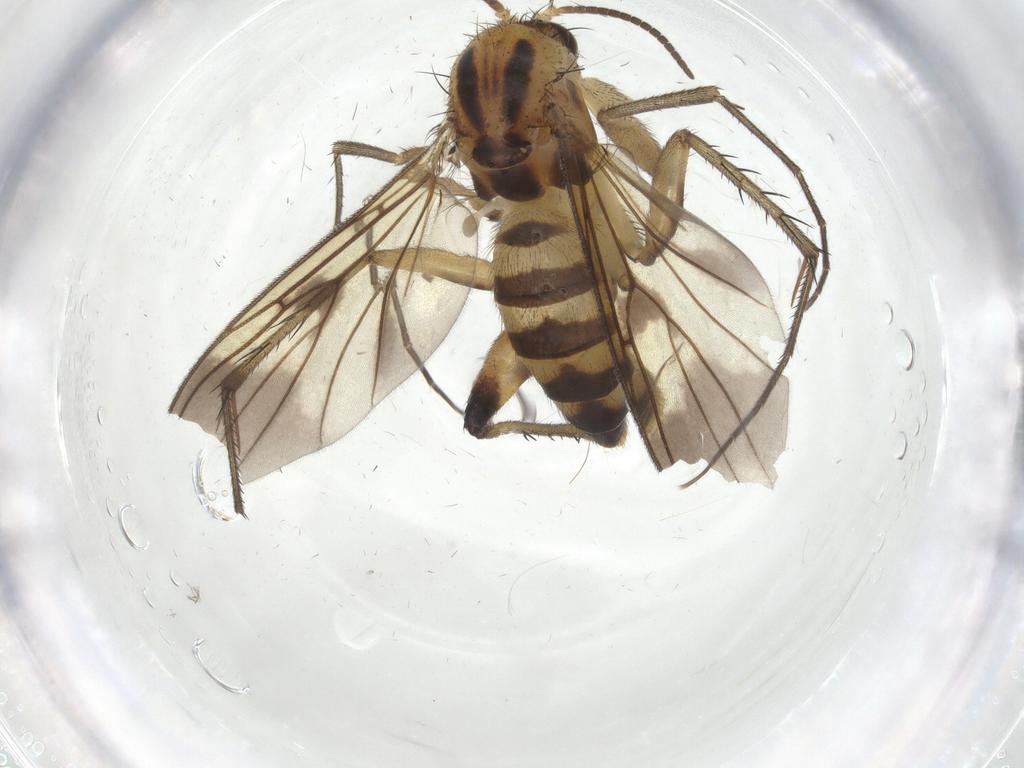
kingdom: Animalia
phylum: Arthropoda
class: Insecta
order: Diptera
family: Mycetophilidae
